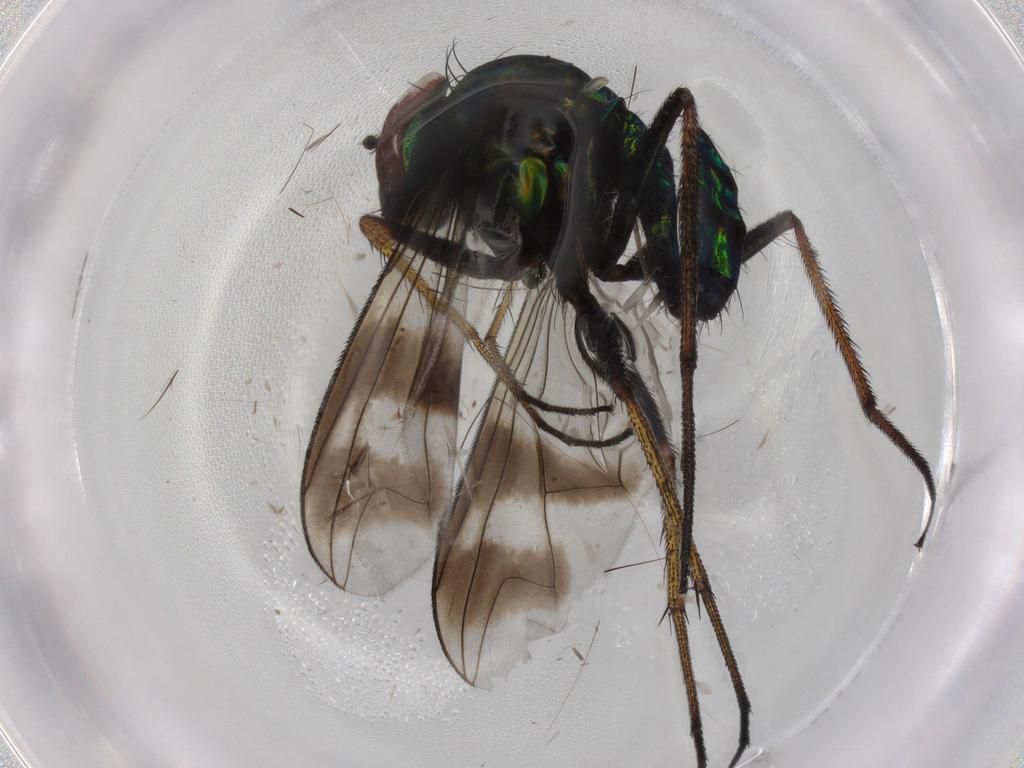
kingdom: Animalia
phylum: Arthropoda
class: Insecta
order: Diptera
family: Dolichopodidae
